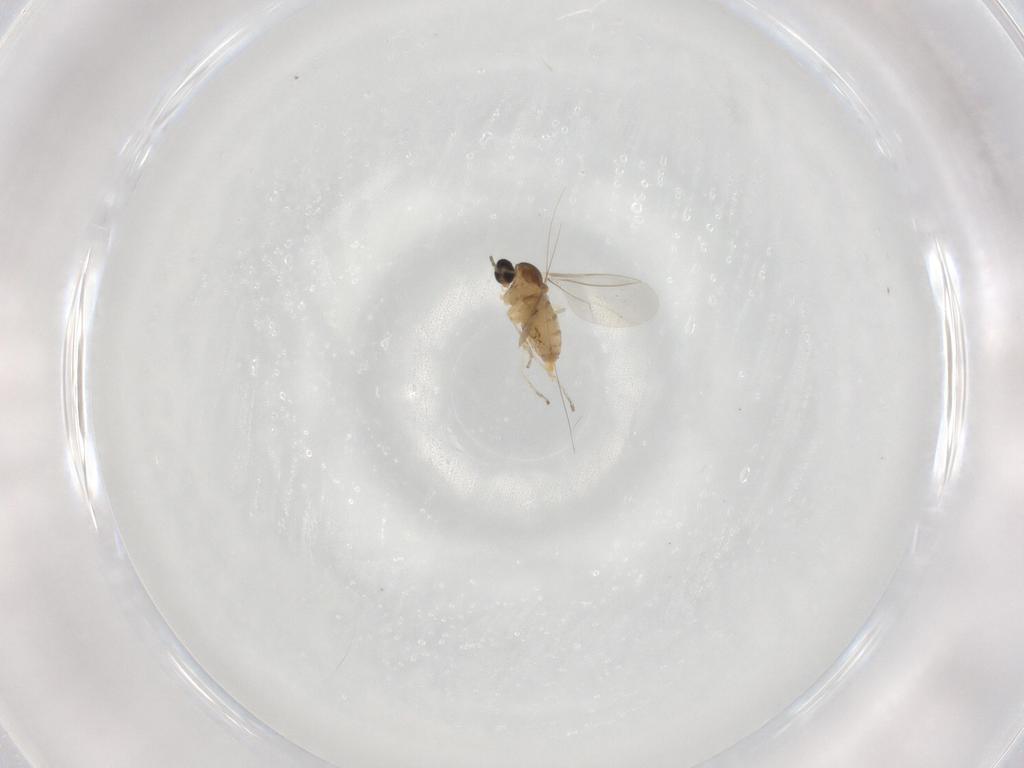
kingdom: Animalia
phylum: Arthropoda
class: Insecta
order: Diptera
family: Cecidomyiidae
